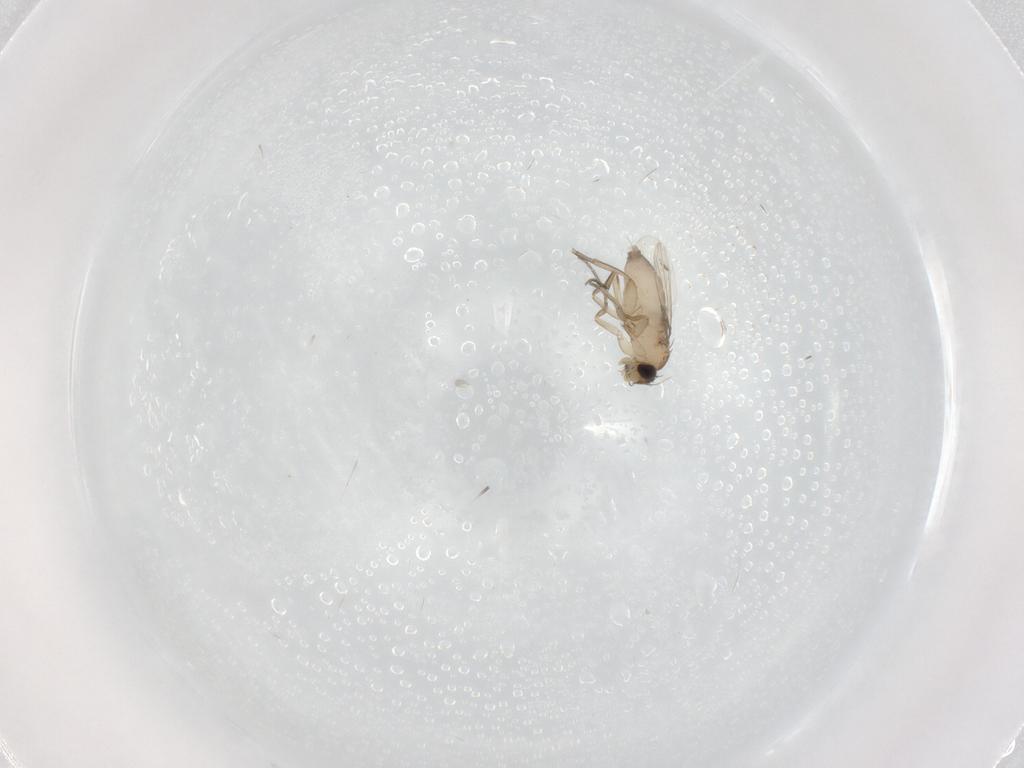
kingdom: Animalia
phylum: Arthropoda
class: Insecta
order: Diptera
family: Phoridae
